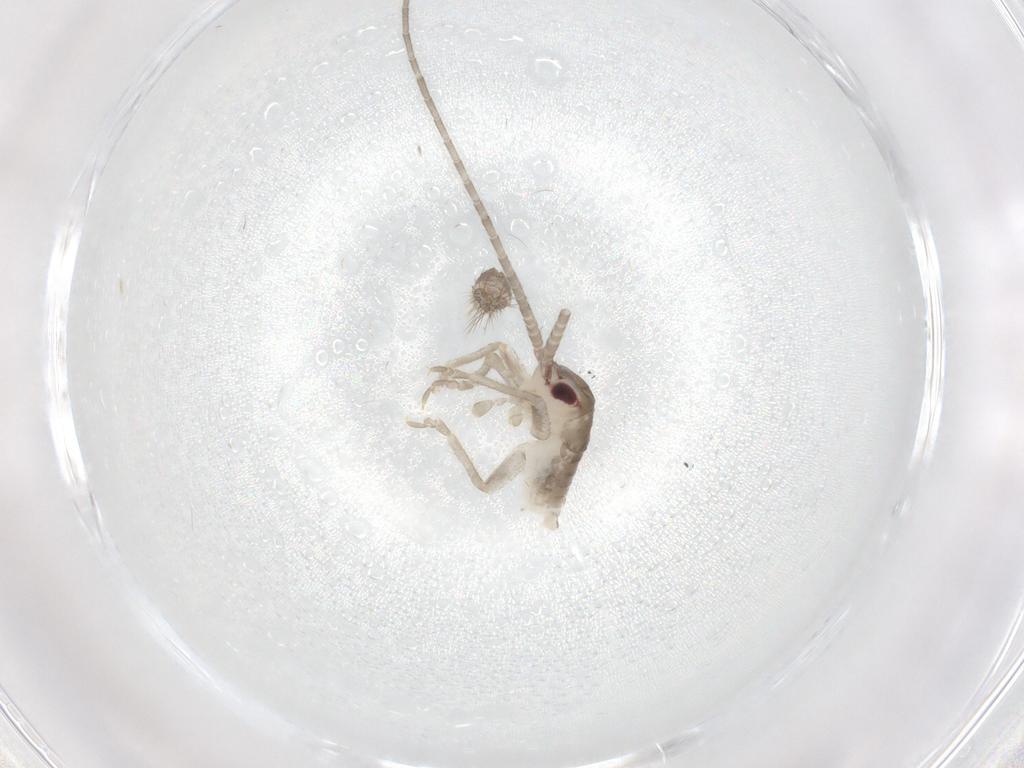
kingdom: Animalia
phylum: Arthropoda
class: Insecta
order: Orthoptera
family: Gryllidae
